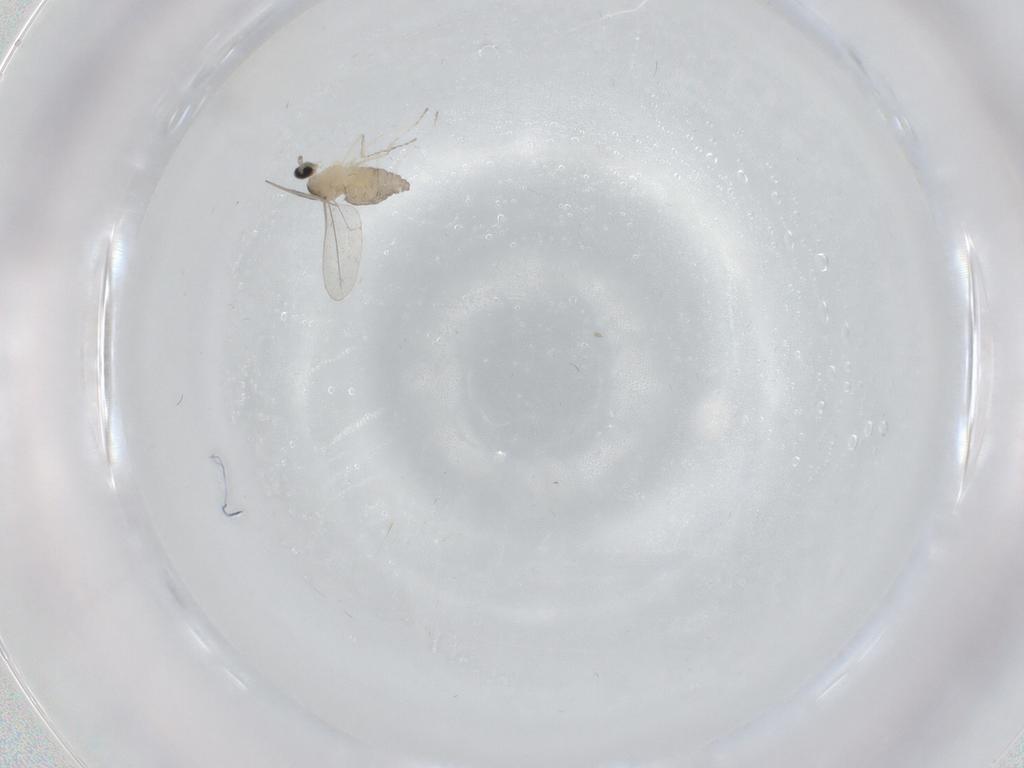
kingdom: Animalia
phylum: Arthropoda
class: Insecta
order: Diptera
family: Cecidomyiidae
